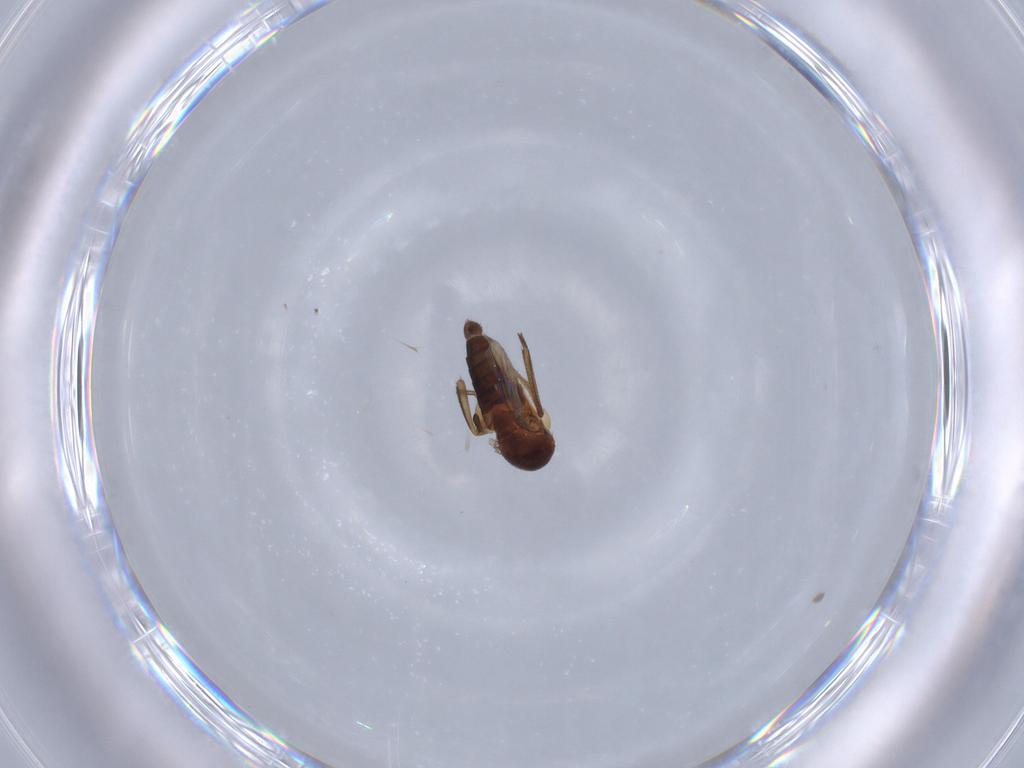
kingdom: Animalia
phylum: Arthropoda
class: Insecta
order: Diptera
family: Phoridae
